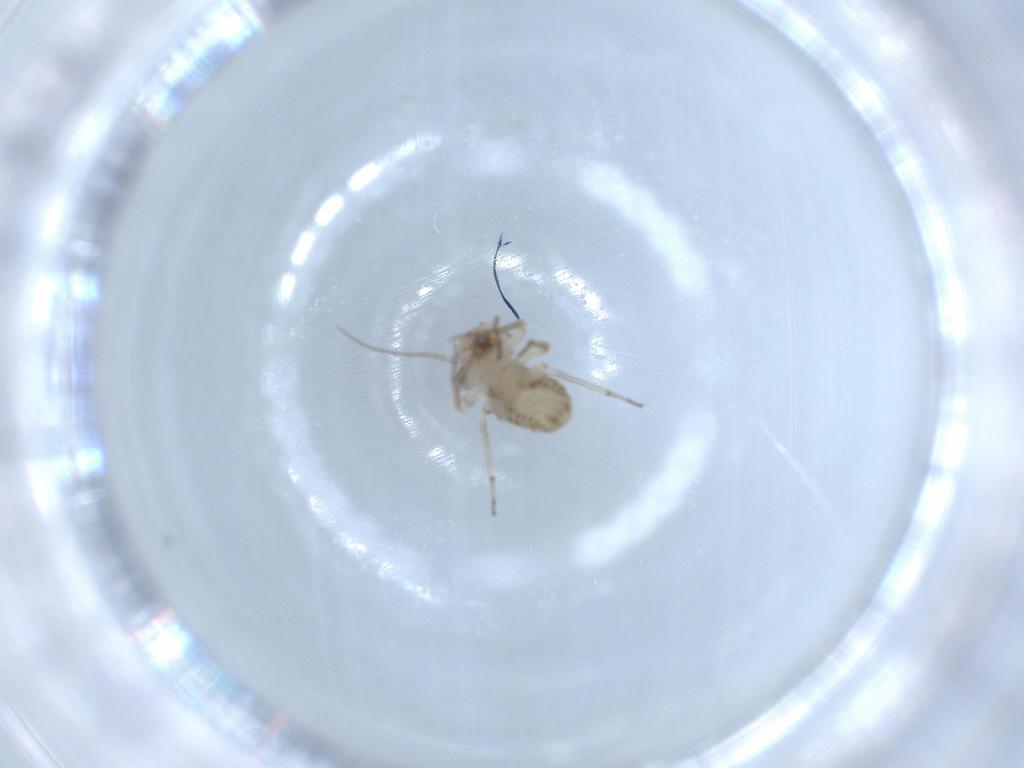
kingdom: Animalia
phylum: Arthropoda
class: Insecta
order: Psocodea
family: Psocidae
